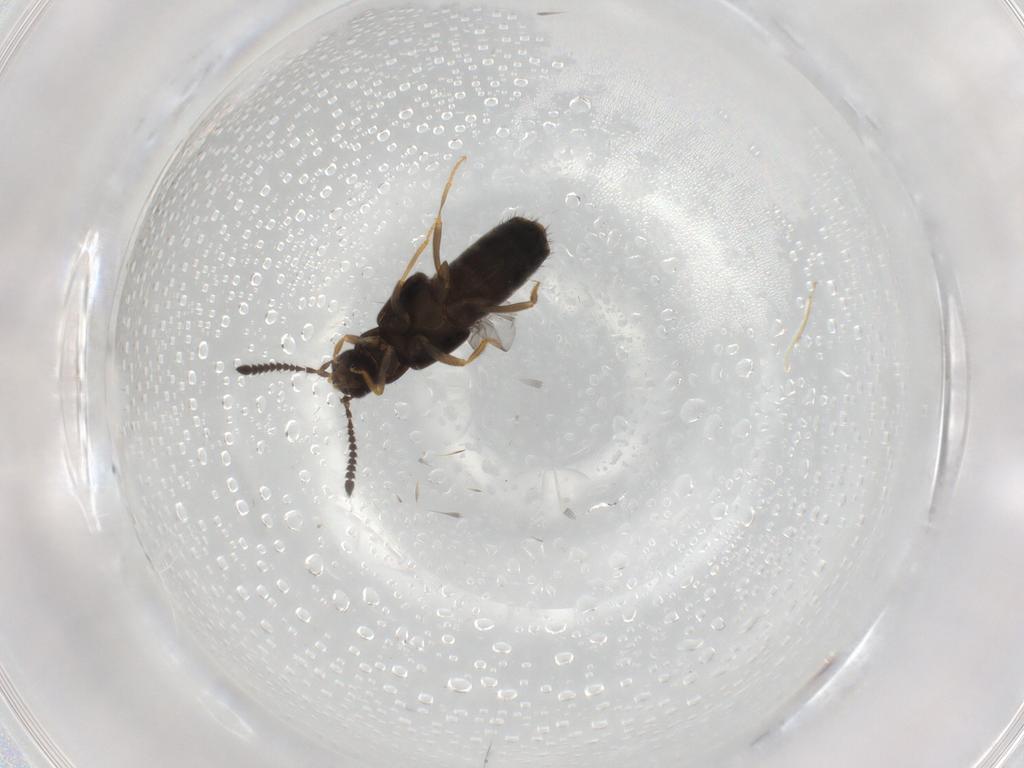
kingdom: Animalia
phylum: Arthropoda
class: Insecta
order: Coleoptera
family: Staphylinidae
